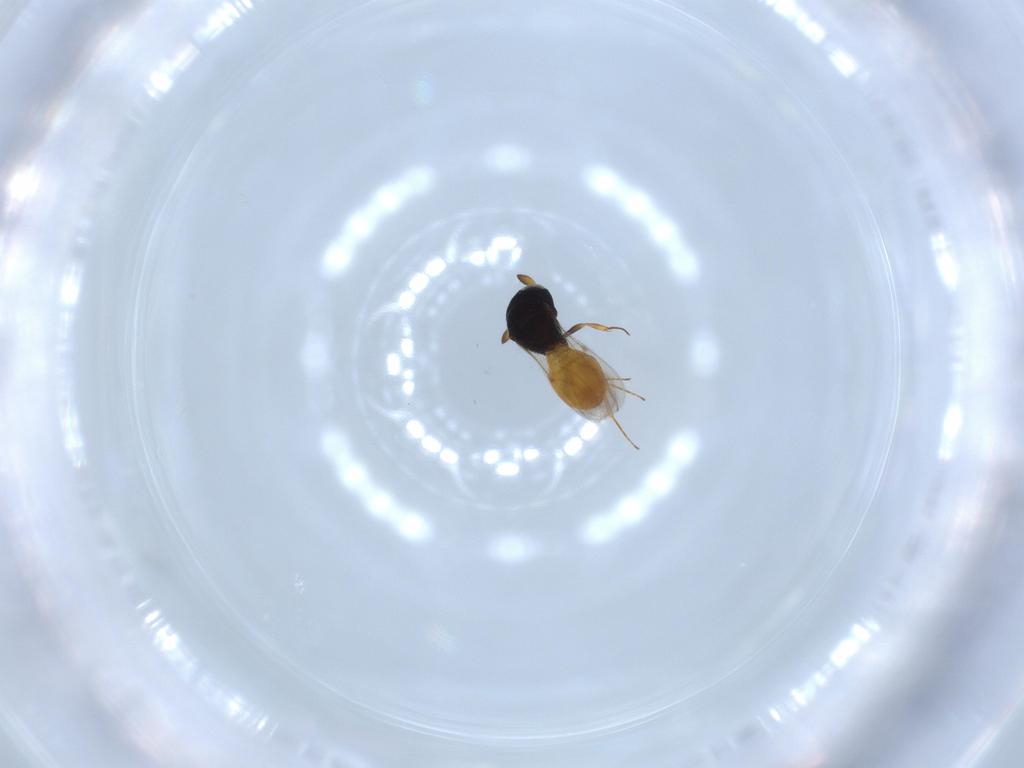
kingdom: Animalia
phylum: Arthropoda
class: Insecta
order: Hymenoptera
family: Scelionidae
